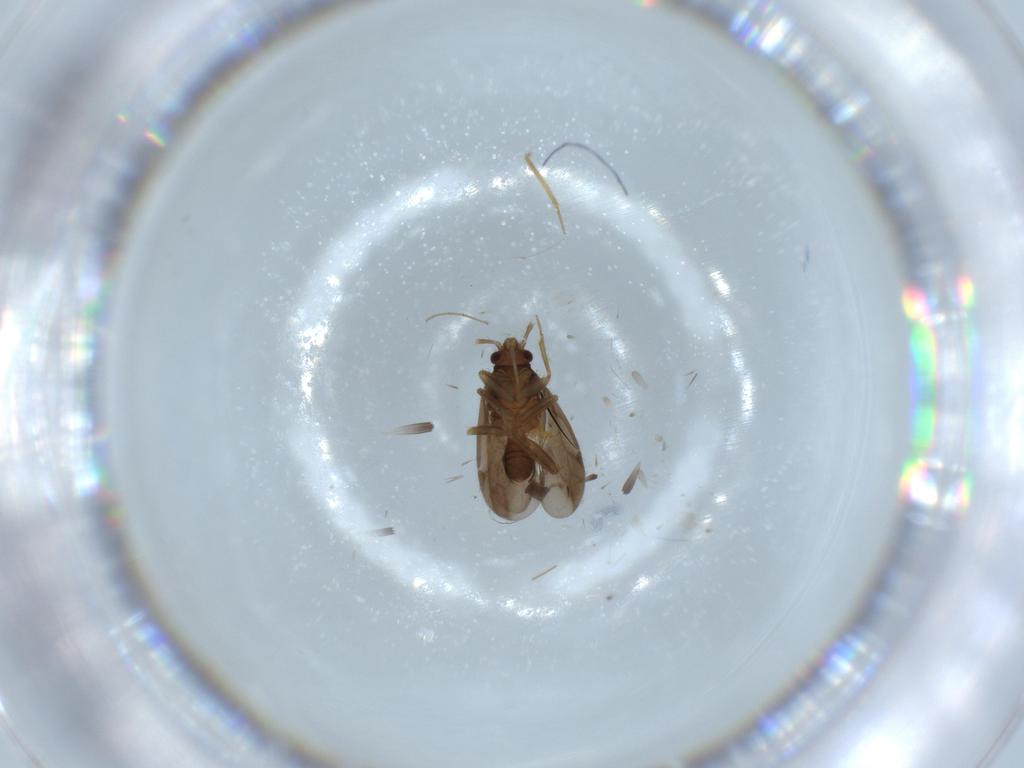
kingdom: Animalia
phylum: Arthropoda
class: Insecta
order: Hemiptera
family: Ceratocombidae
